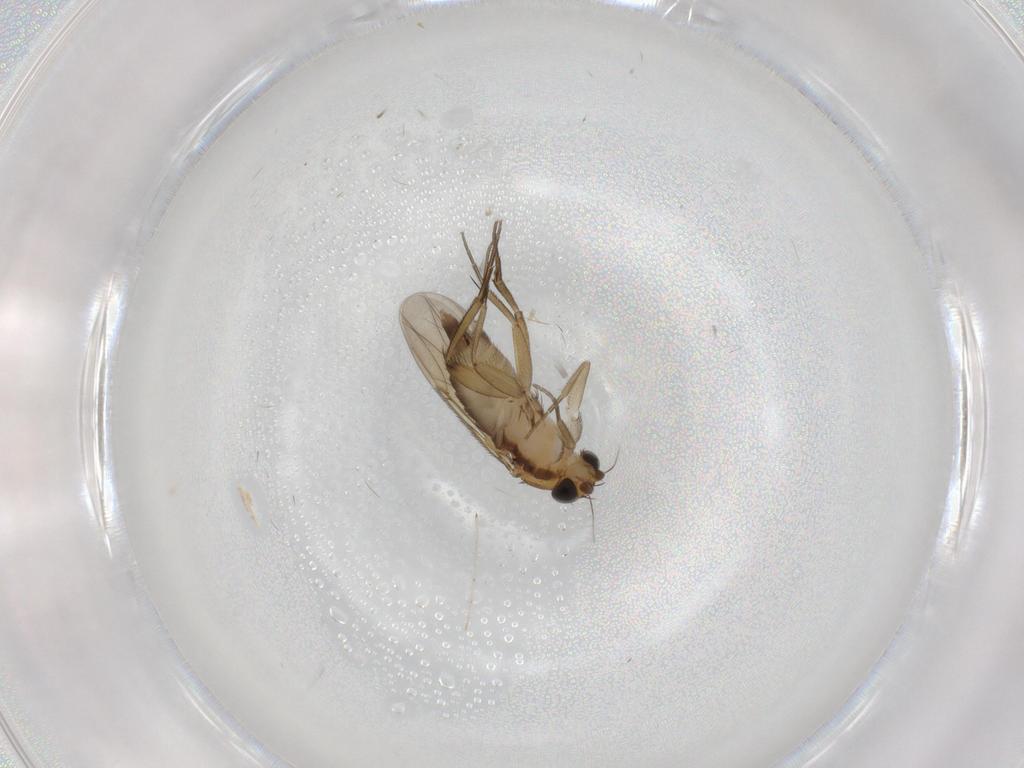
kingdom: Animalia
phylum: Arthropoda
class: Insecta
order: Diptera
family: Phoridae
